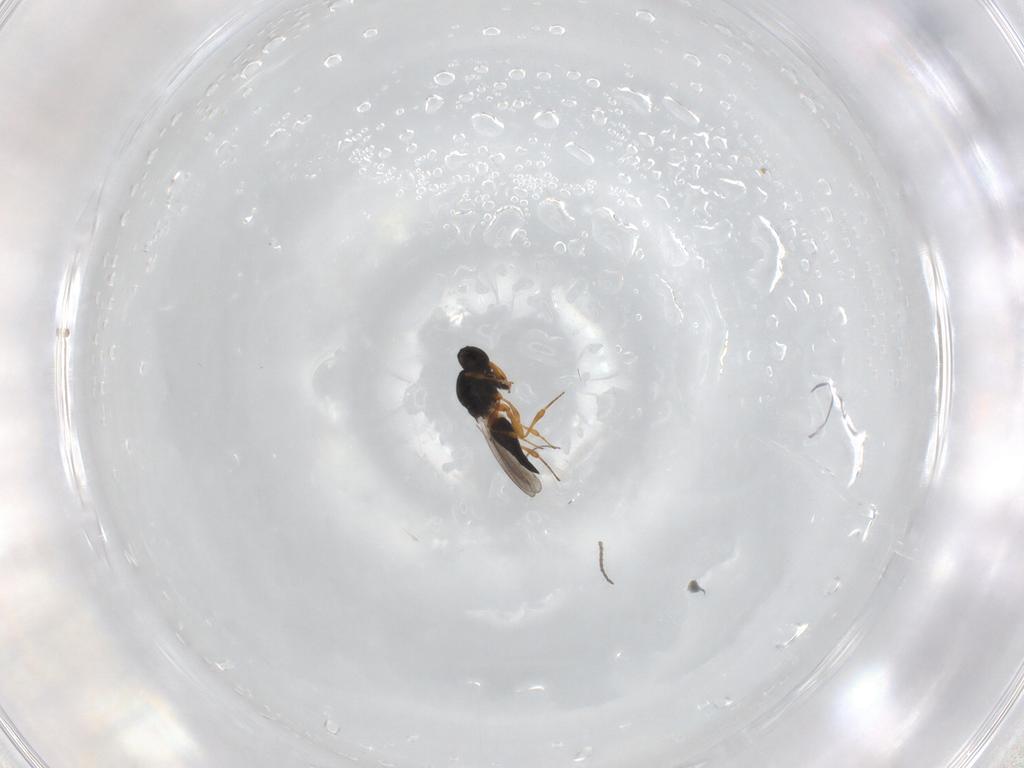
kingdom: Animalia
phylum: Arthropoda
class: Insecta
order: Hymenoptera
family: Platygastridae
